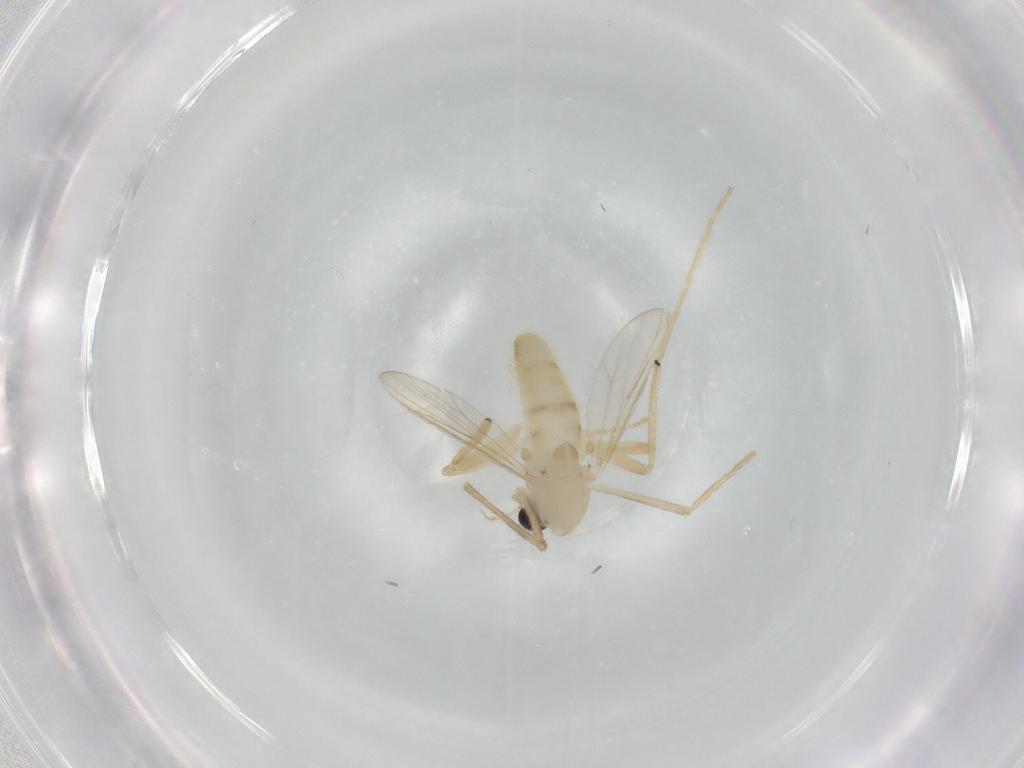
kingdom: Animalia
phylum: Arthropoda
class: Insecta
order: Diptera
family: Chironomidae
